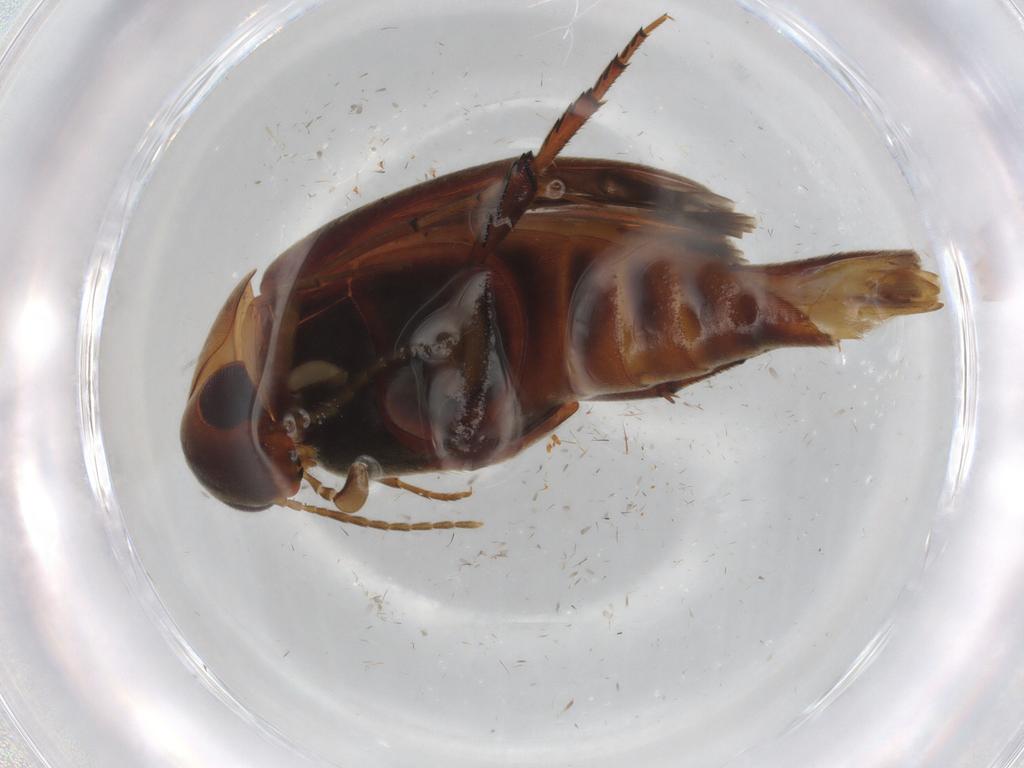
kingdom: Animalia
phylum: Arthropoda
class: Insecta
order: Coleoptera
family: Mordellidae
